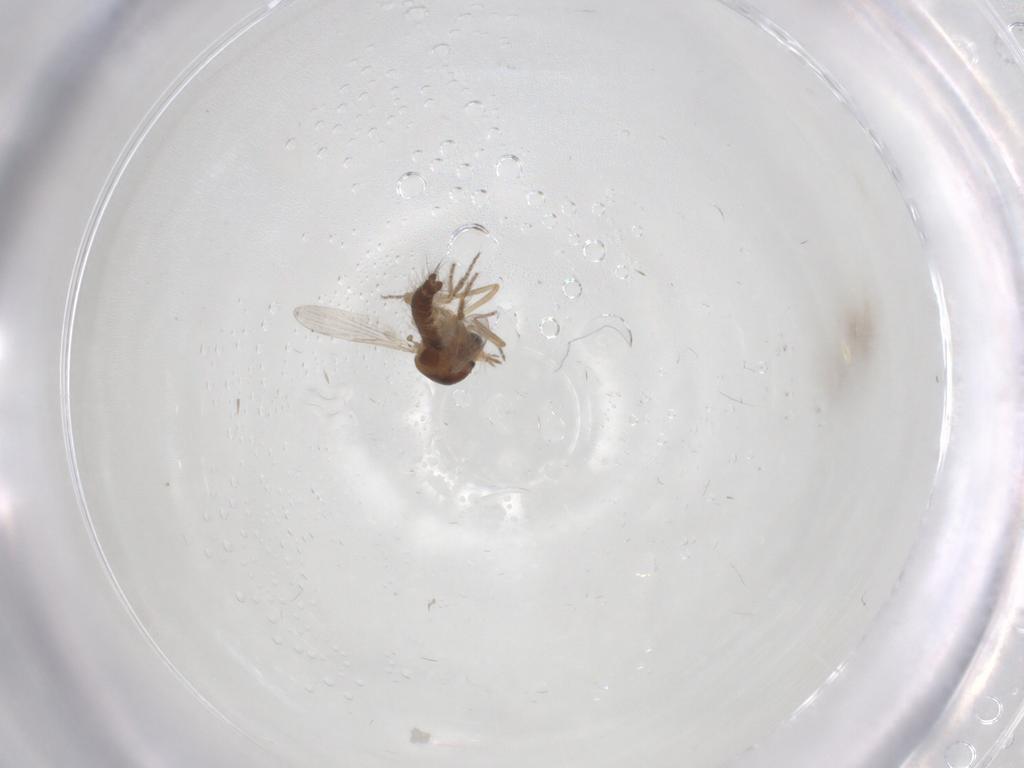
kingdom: Animalia
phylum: Arthropoda
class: Insecta
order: Diptera
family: Ceratopogonidae
